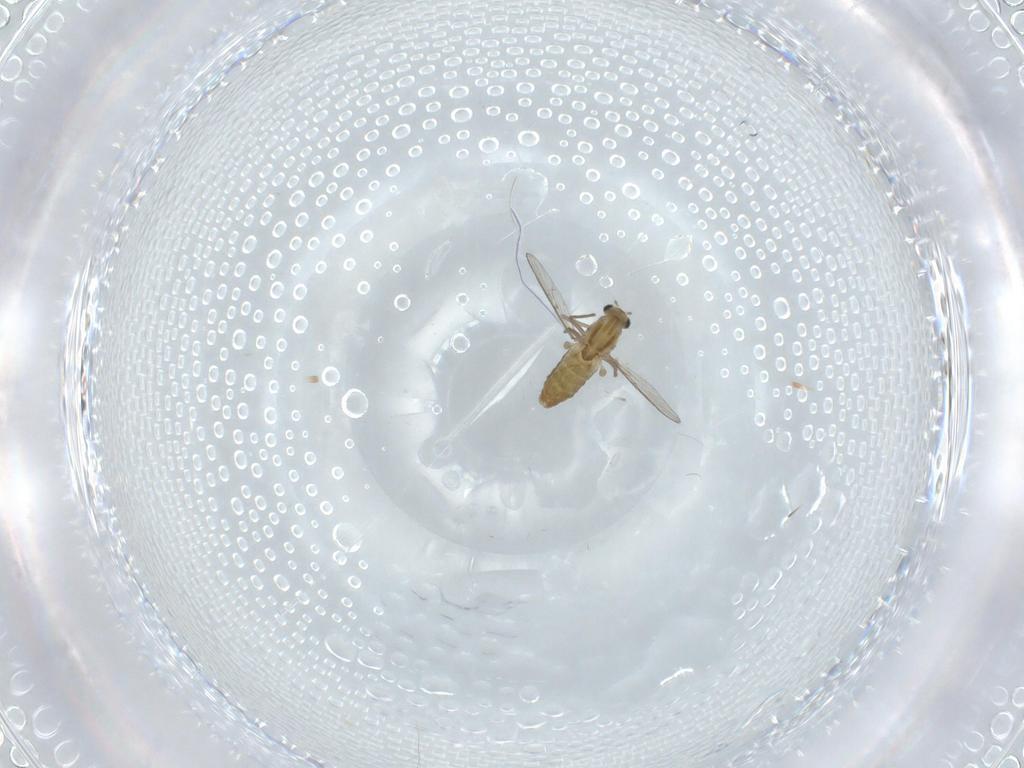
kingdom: Animalia
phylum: Arthropoda
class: Insecta
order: Diptera
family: Chironomidae
